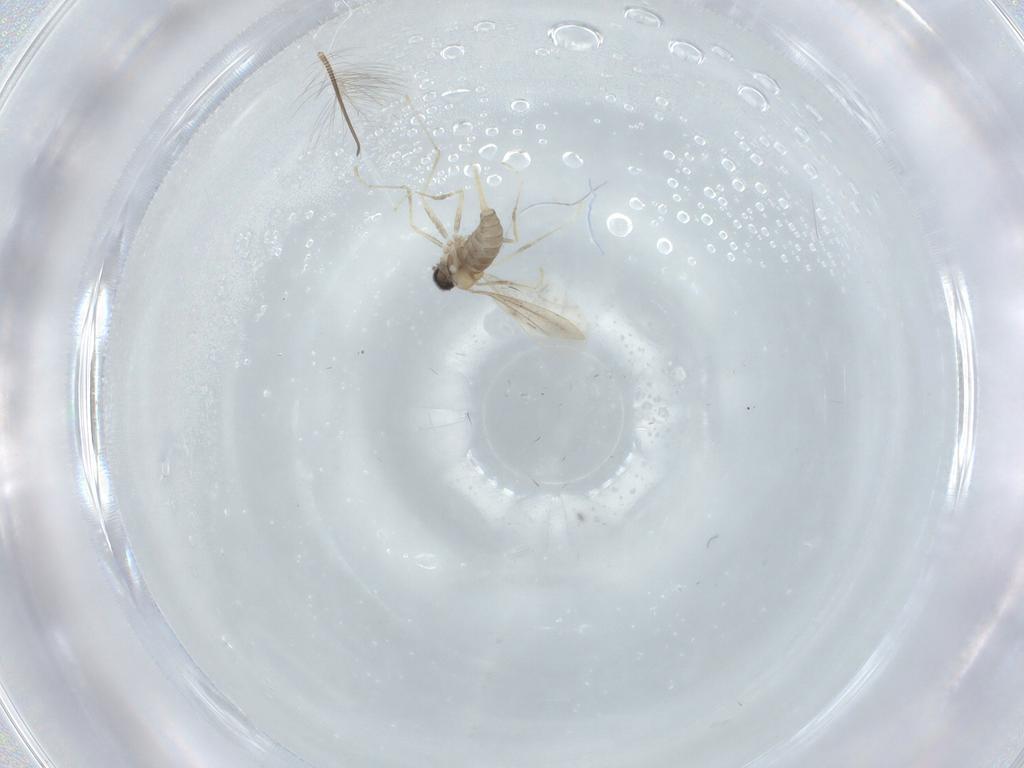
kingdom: Animalia
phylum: Arthropoda
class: Insecta
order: Diptera
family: Cecidomyiidae
